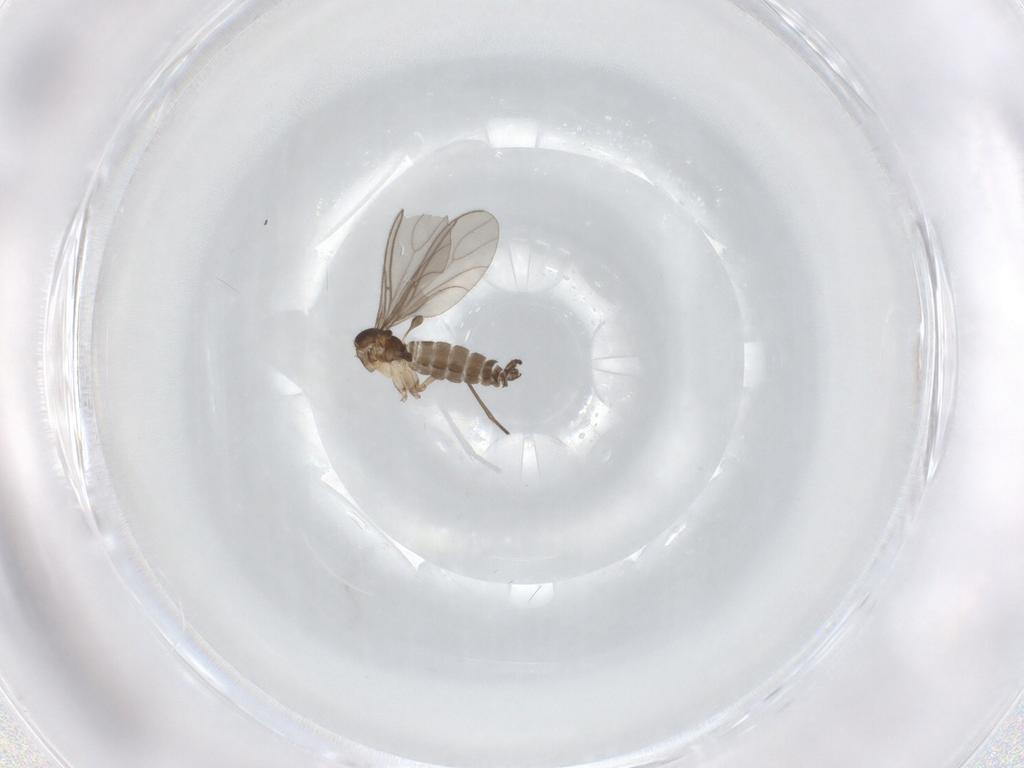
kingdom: Animalia
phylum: Arthropoda
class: Insecta
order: Diptera
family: Sciaridae
